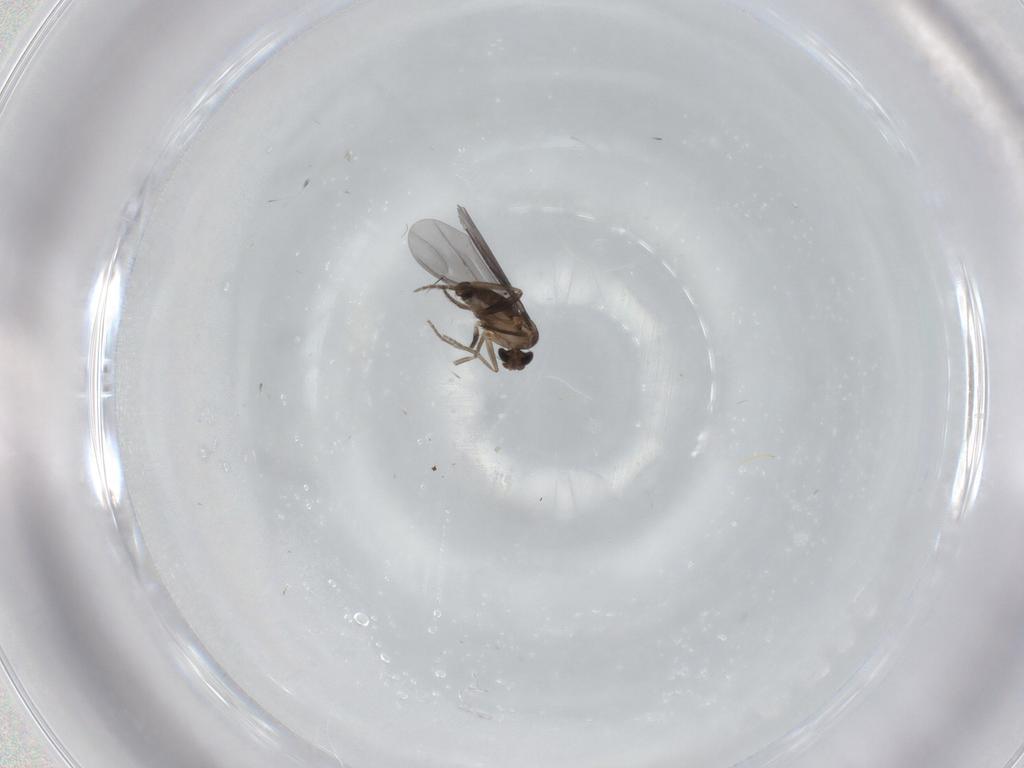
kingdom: Animalia
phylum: Arthropoda
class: Insecta
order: Diptera
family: Phoridae
